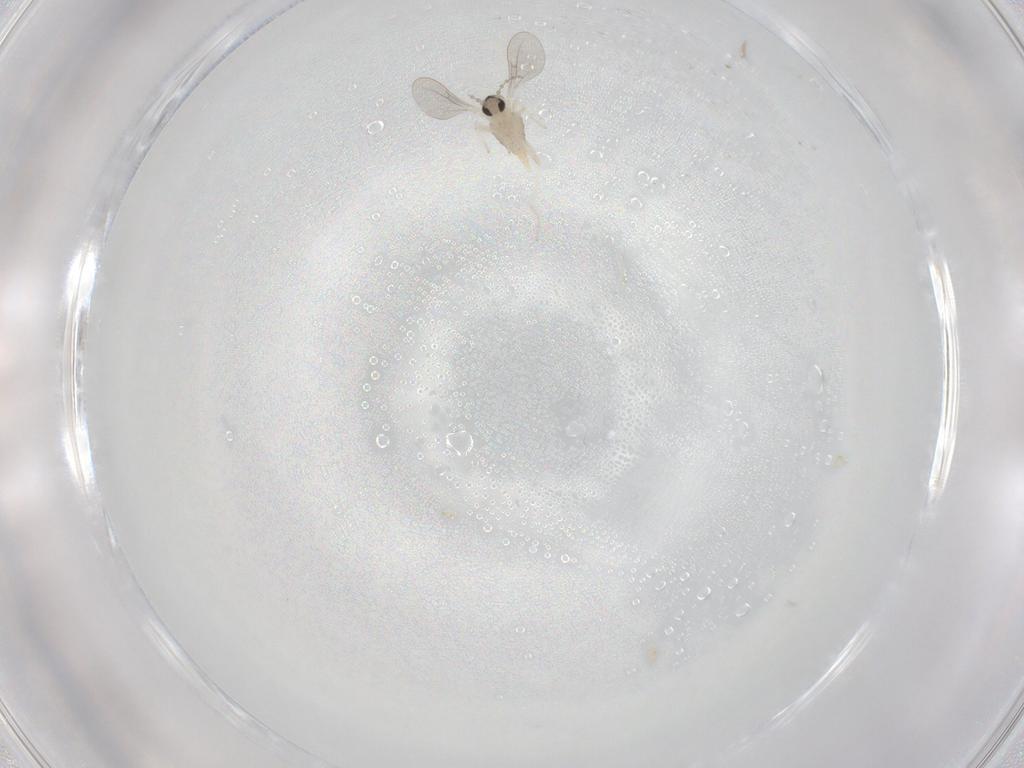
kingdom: Animalia
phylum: Arthropoda
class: Insecta
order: Diptera
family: Cecidomyiidae
